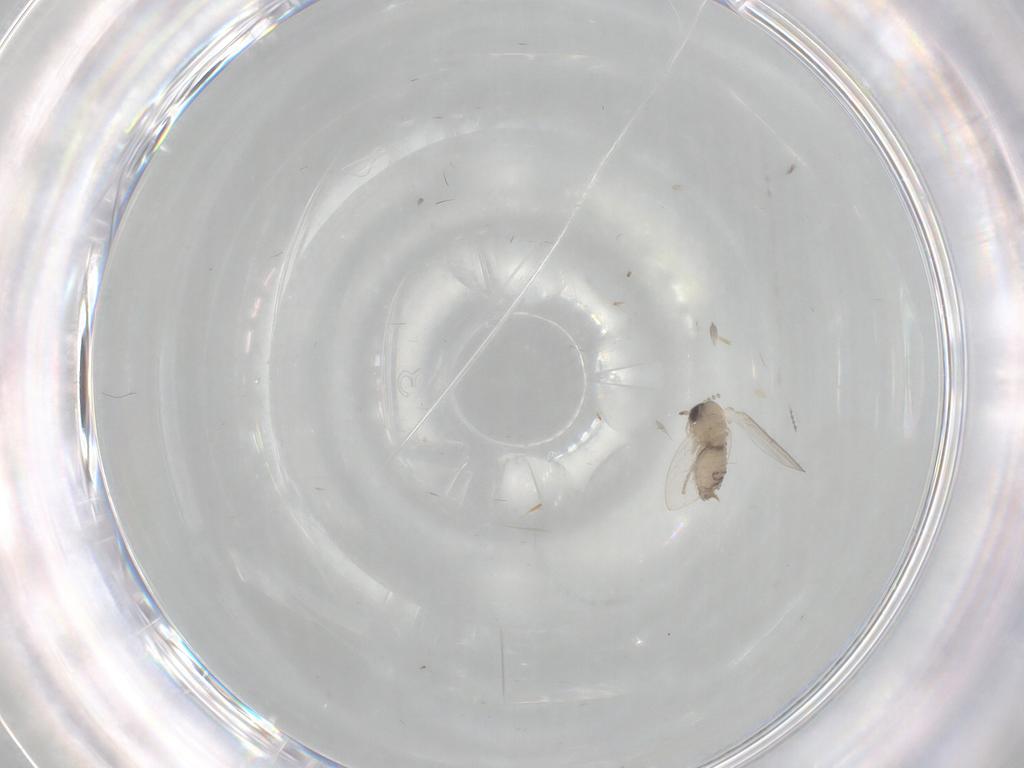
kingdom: Animalia
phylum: Arthropoda
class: Insecta
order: Diptera
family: Psychodidae
